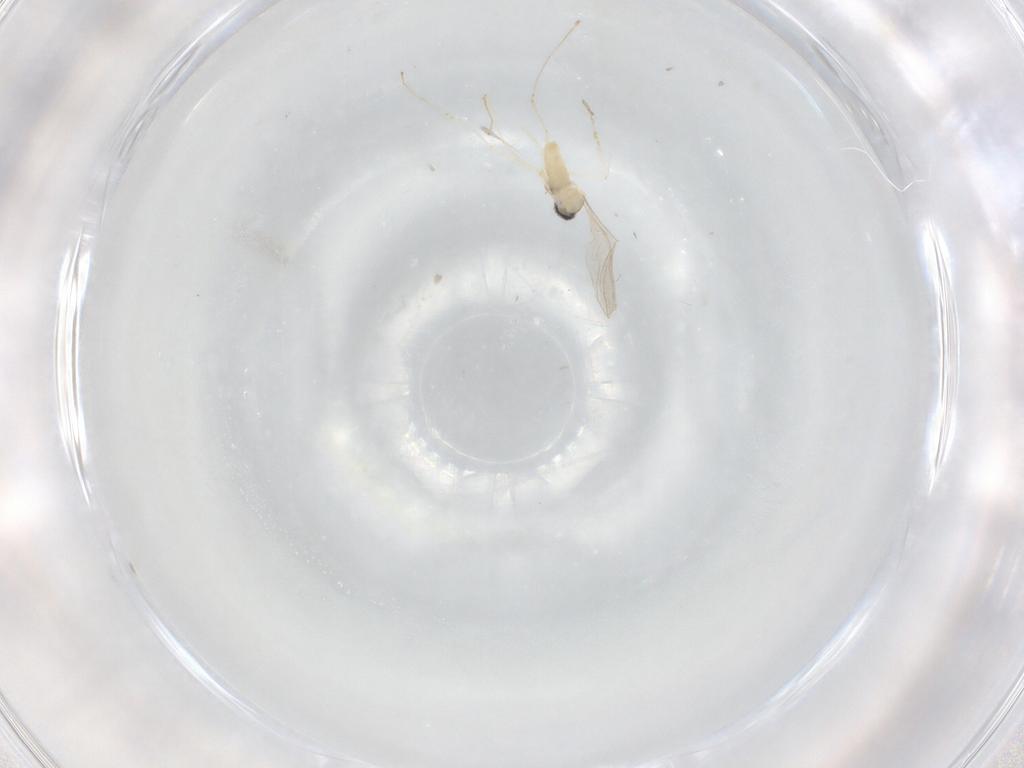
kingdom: Animalia
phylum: Arthropoda
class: Insecta
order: Diptera
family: Cecidomyiidae
